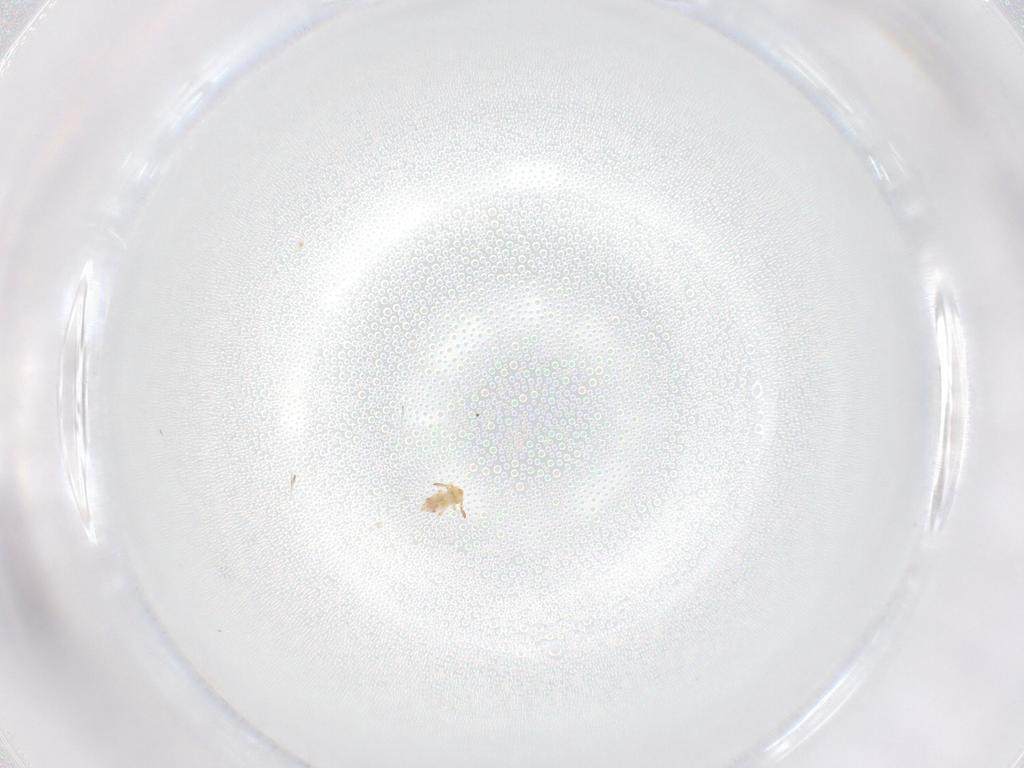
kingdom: Animalia
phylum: Arthropoda
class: Collembola
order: Symphypleona
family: Bourletiellidae
